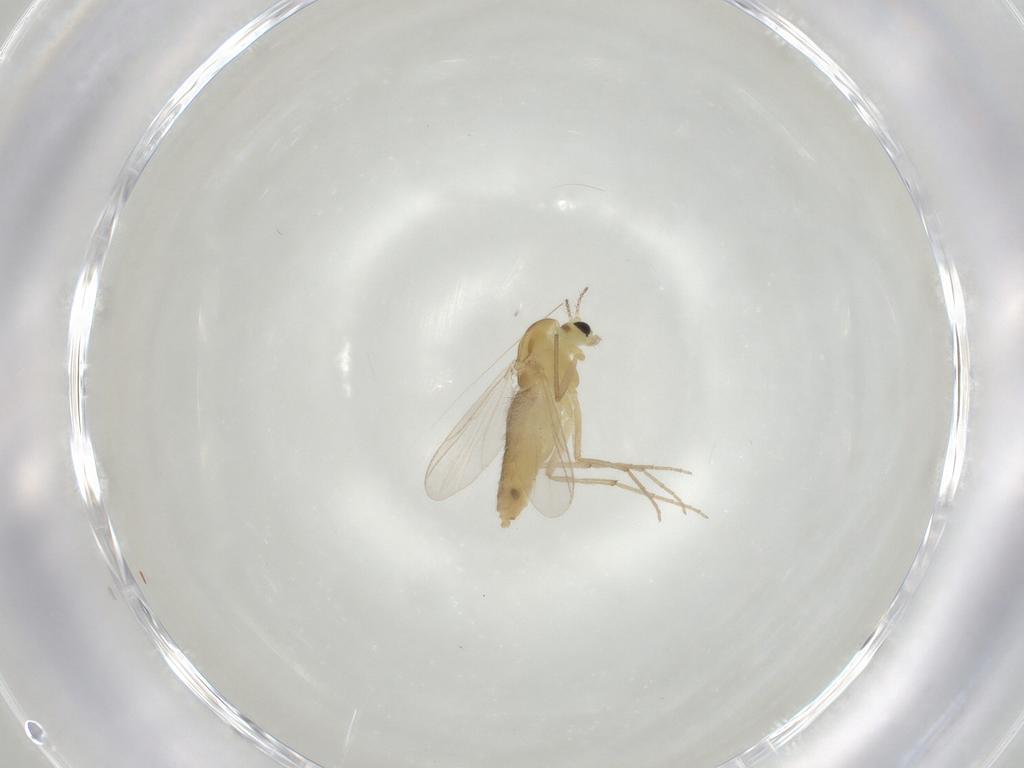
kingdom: Animalia
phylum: Arthropoda
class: Insecta
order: Diptera
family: Chironomidae
